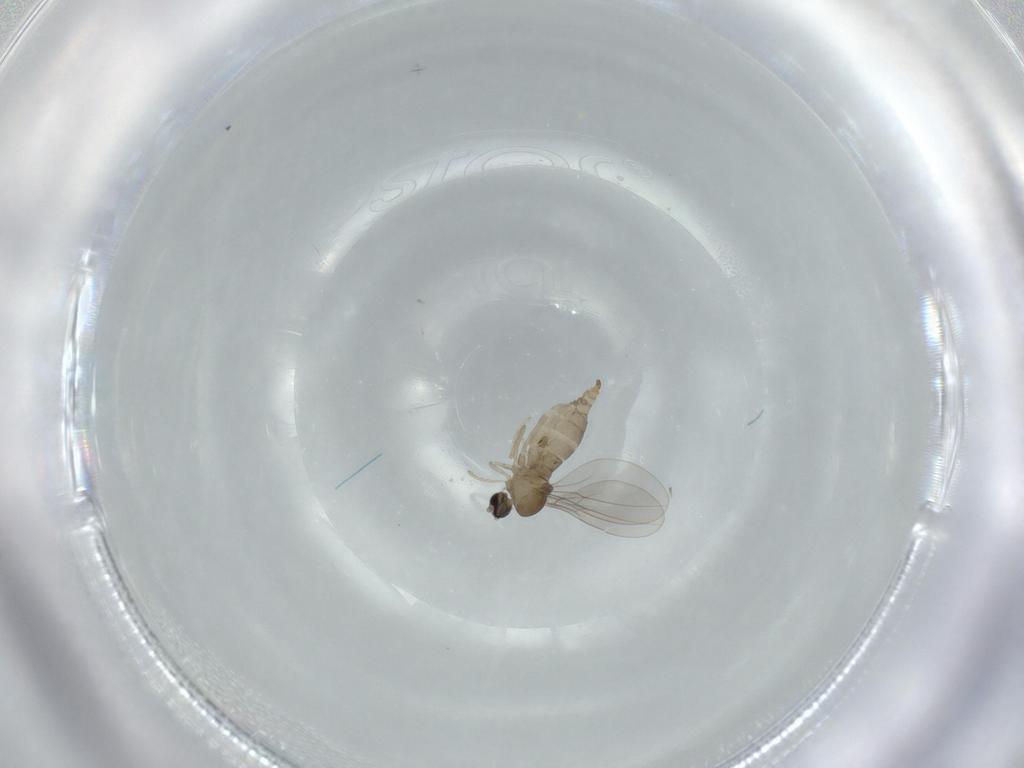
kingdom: Animalia
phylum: Arthropoda
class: Insecta
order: Diptera
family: Cecidomyiidae
